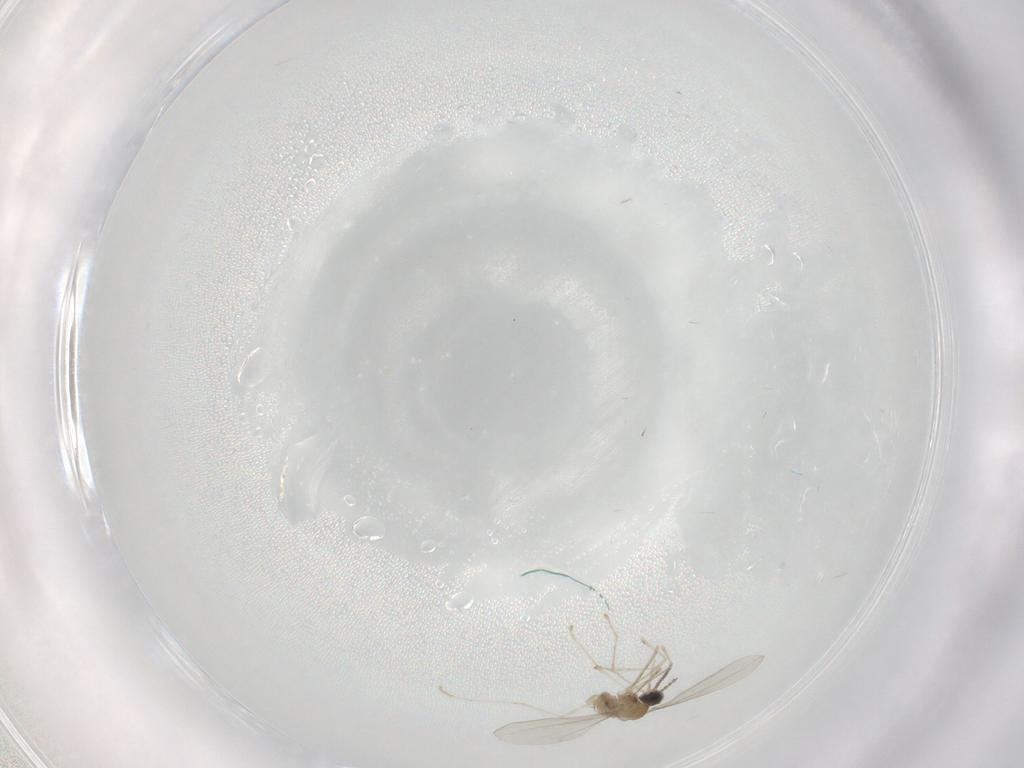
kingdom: Animalia
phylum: Arthropoda
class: Insecta
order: Diptera
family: Cecidomyiidae
